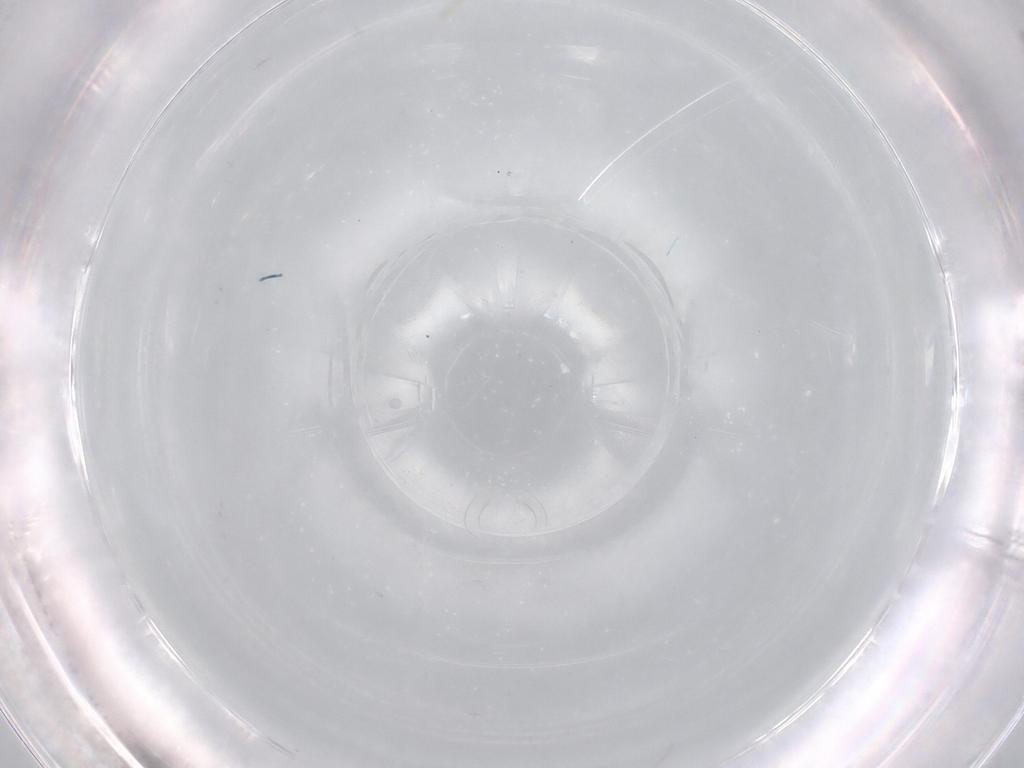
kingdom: Animalia
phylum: Arthropoda
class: Insecta
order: Hemiptera
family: Aleyrodidae
